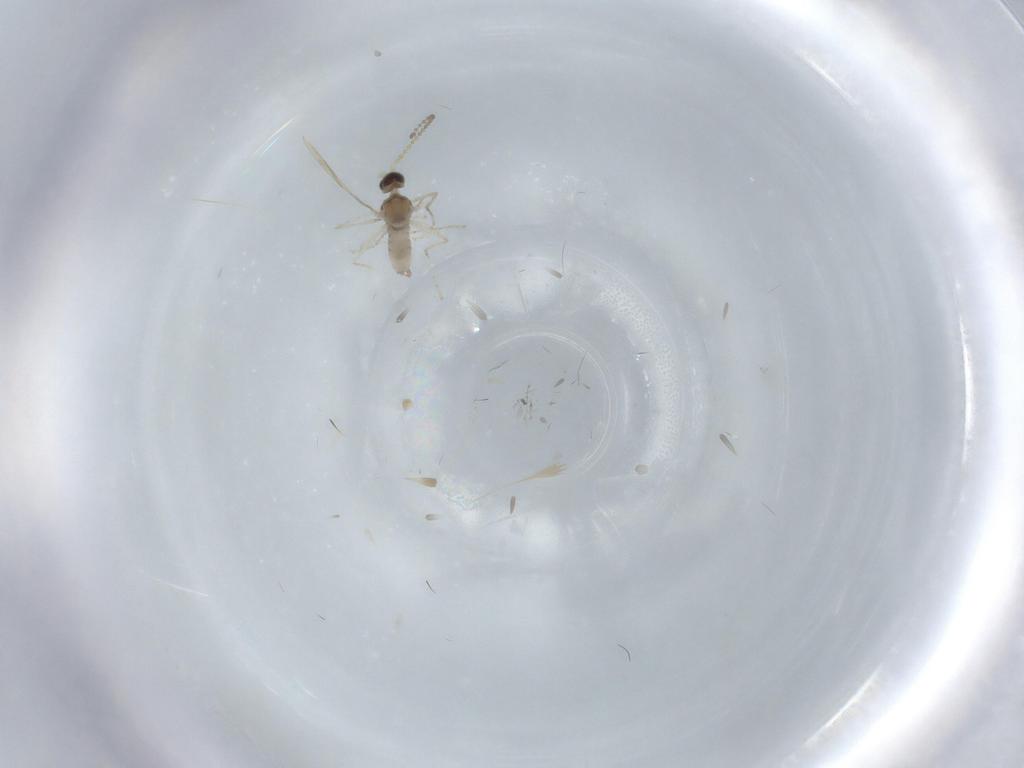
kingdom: Animalia
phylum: Arthropoda
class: Insecta
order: Diptera
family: Cecidomyiidae
